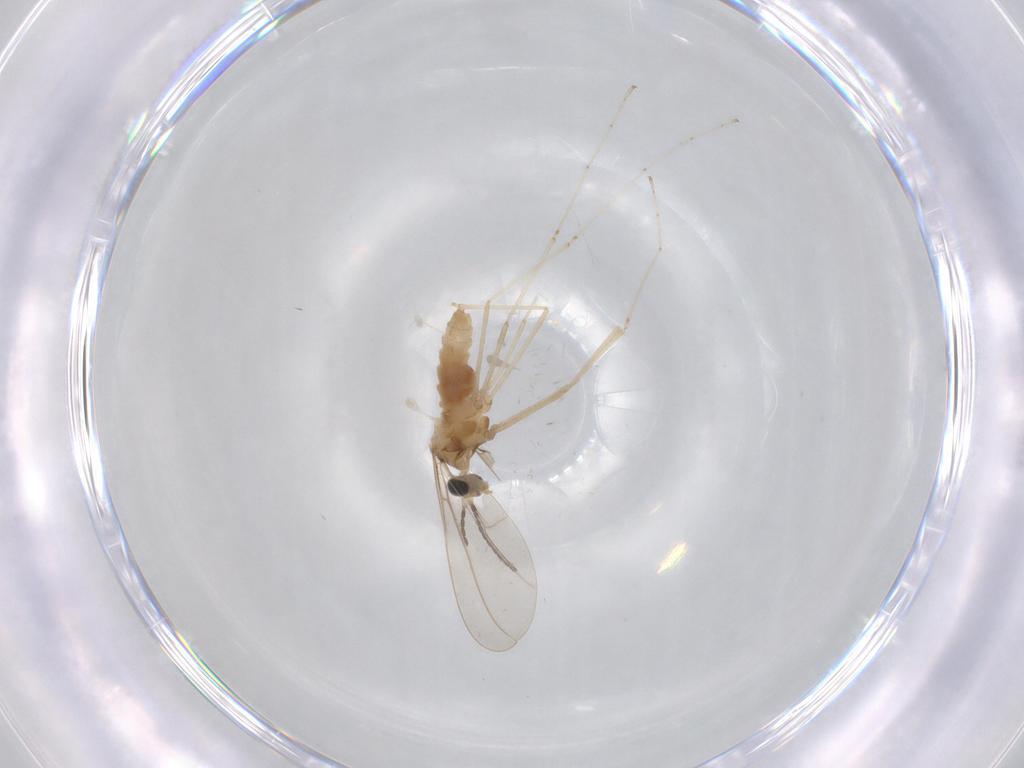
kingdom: Animalia
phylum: Arthropoda
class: Insecta
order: Diptera
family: Cecidomyiidae
